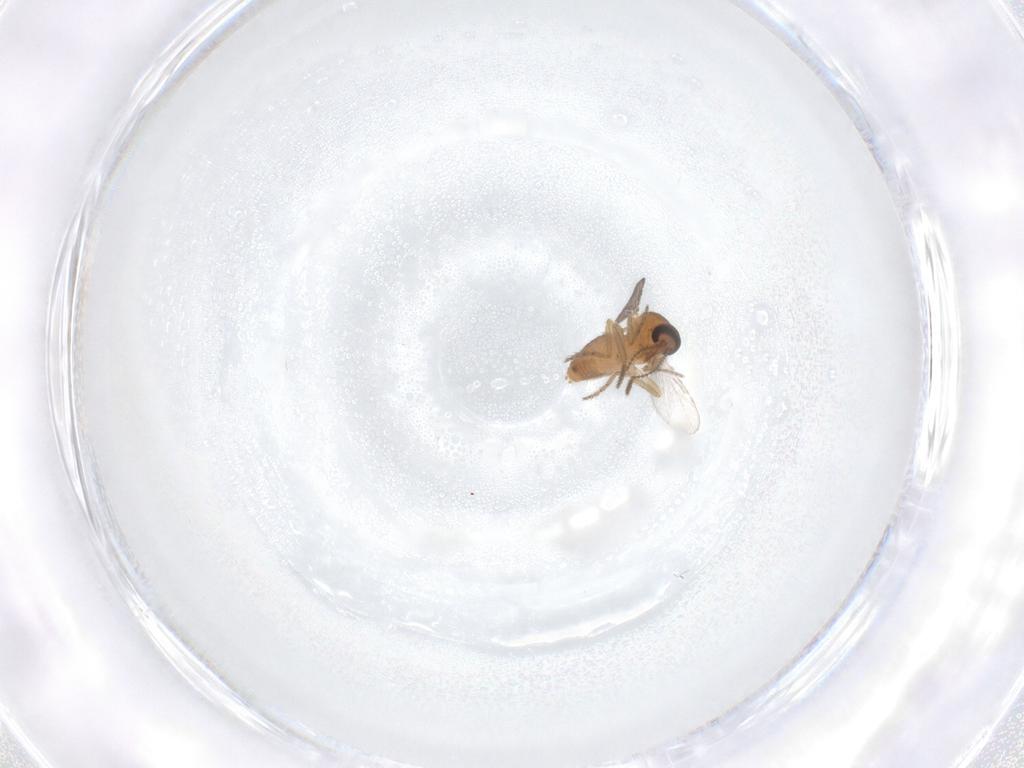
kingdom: Animalia
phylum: Arthropoda
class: Insecta
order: Diptera
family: Ceratopogonidae
